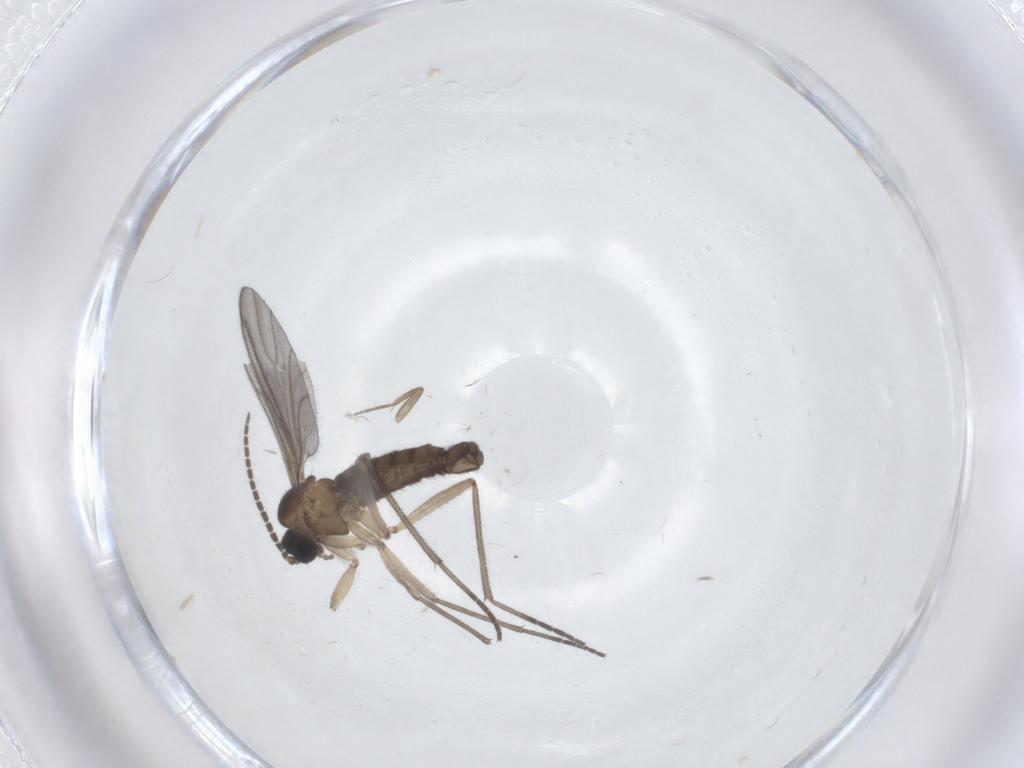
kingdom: Animalia
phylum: Arthropoda
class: Insecta
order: Diptera
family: Sciaridae
